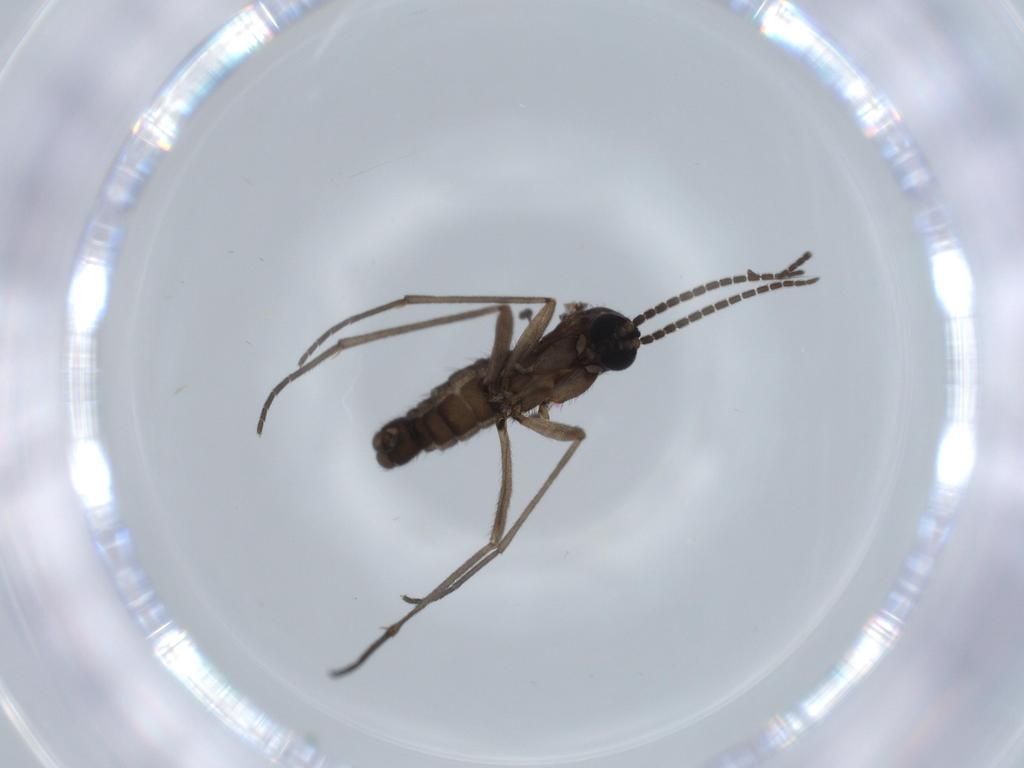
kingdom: Animalia
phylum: Arthropoda
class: Insecta
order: Diptera
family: Sciaridae
